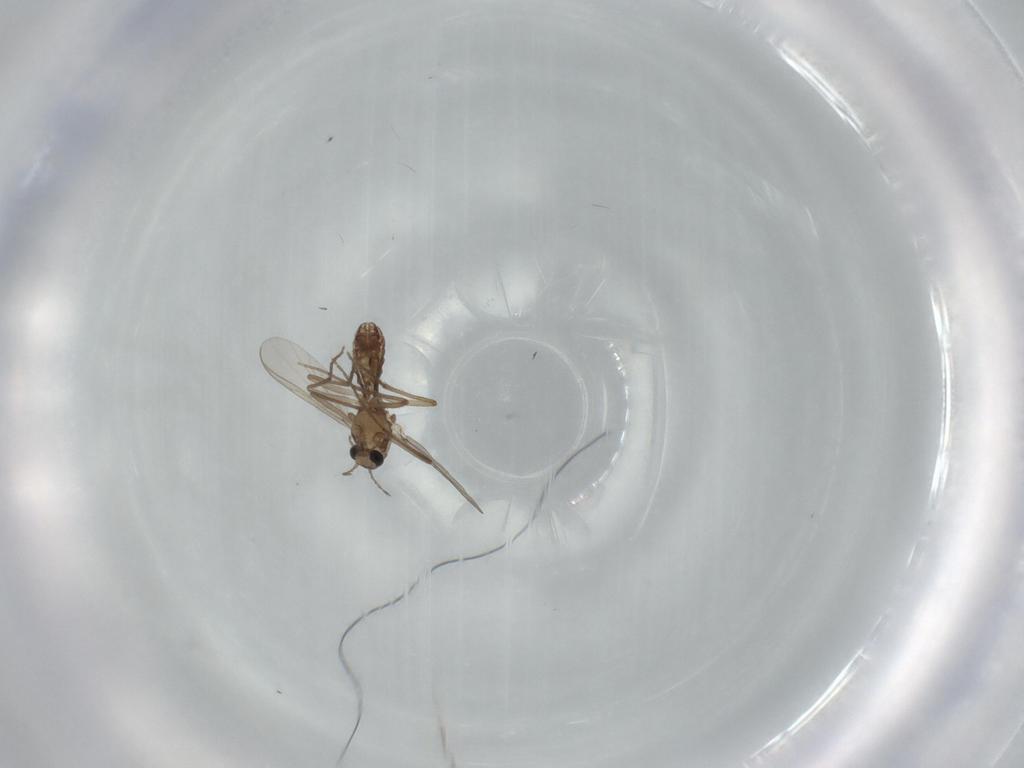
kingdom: Animalia
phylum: Arthropoda
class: Insecta
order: Diptera
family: Chironomidae
